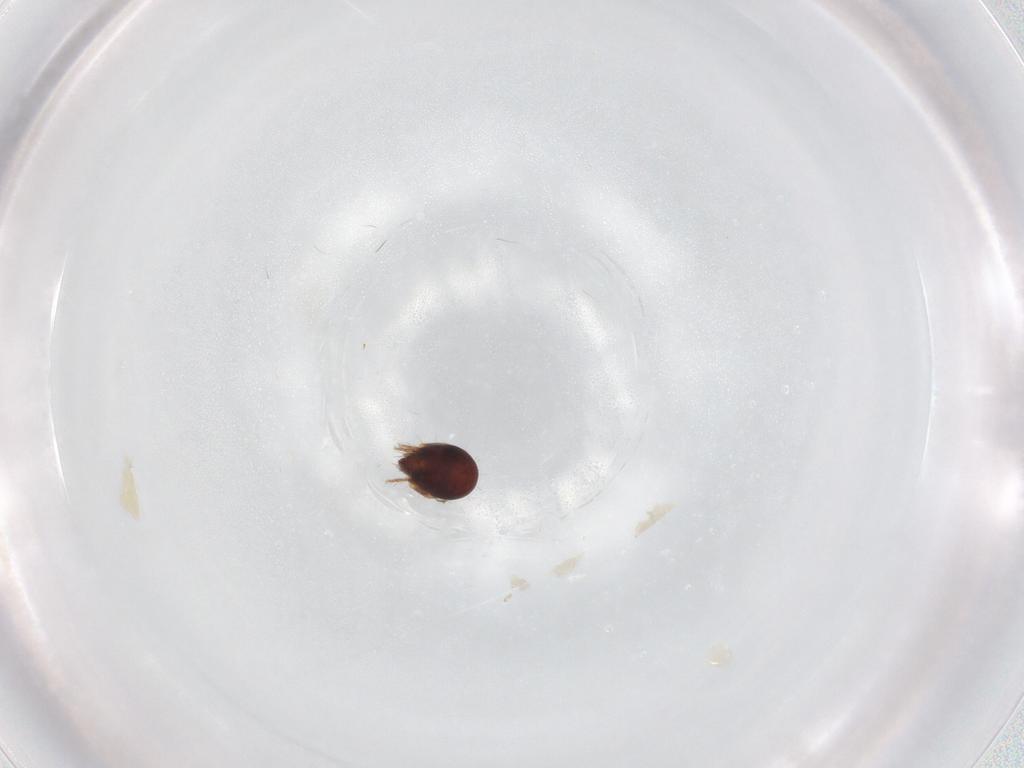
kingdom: Animalia
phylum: Arthropoda
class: Arachnida
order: Sarcoptiformes
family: Humerobatidae
